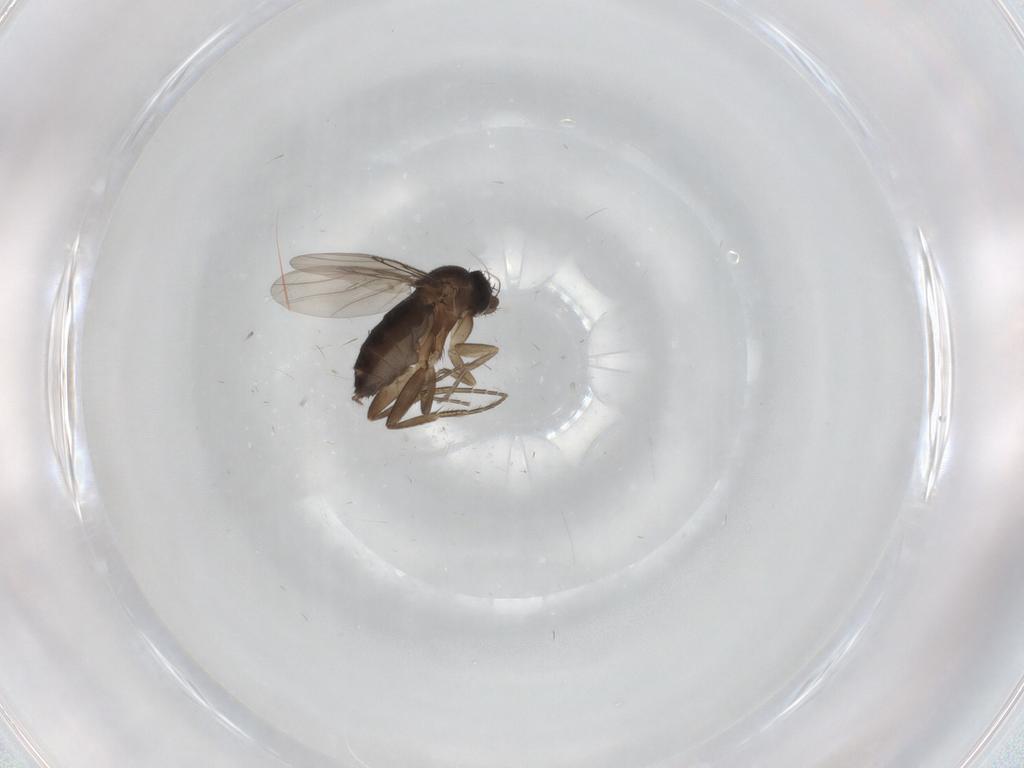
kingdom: Animalia
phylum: Arthropoda
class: Insecta
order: Diptera
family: Phoridae
